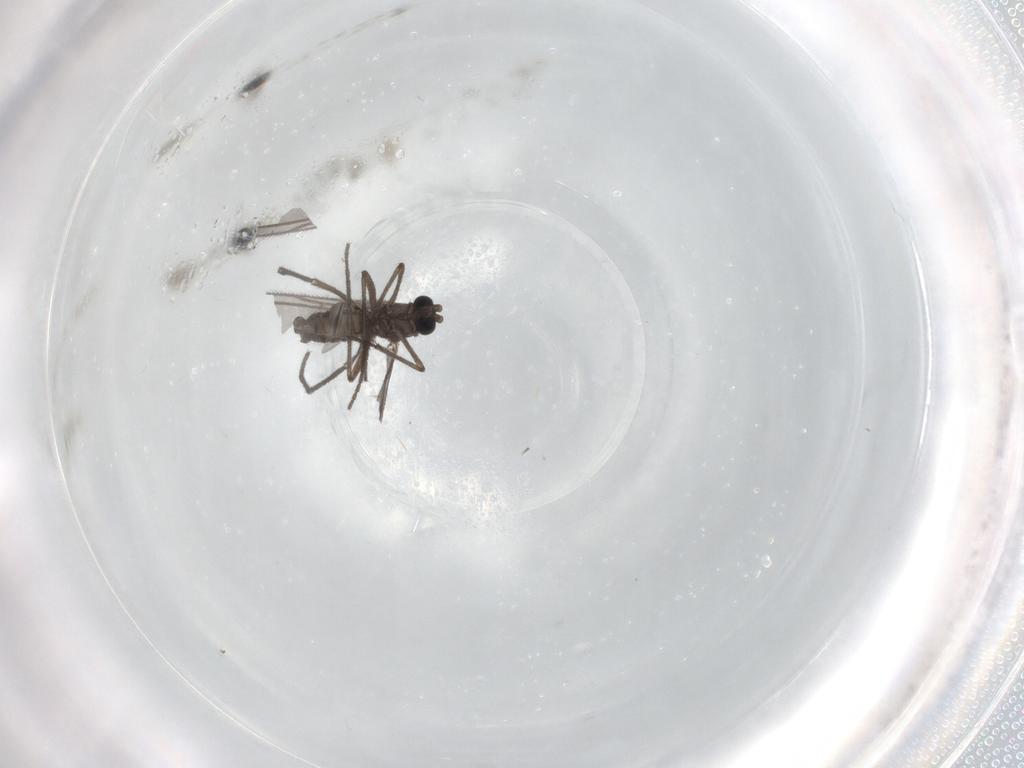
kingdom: Animalia
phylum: Arthropoda
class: Insecta
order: Diptera
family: Sciaridae
